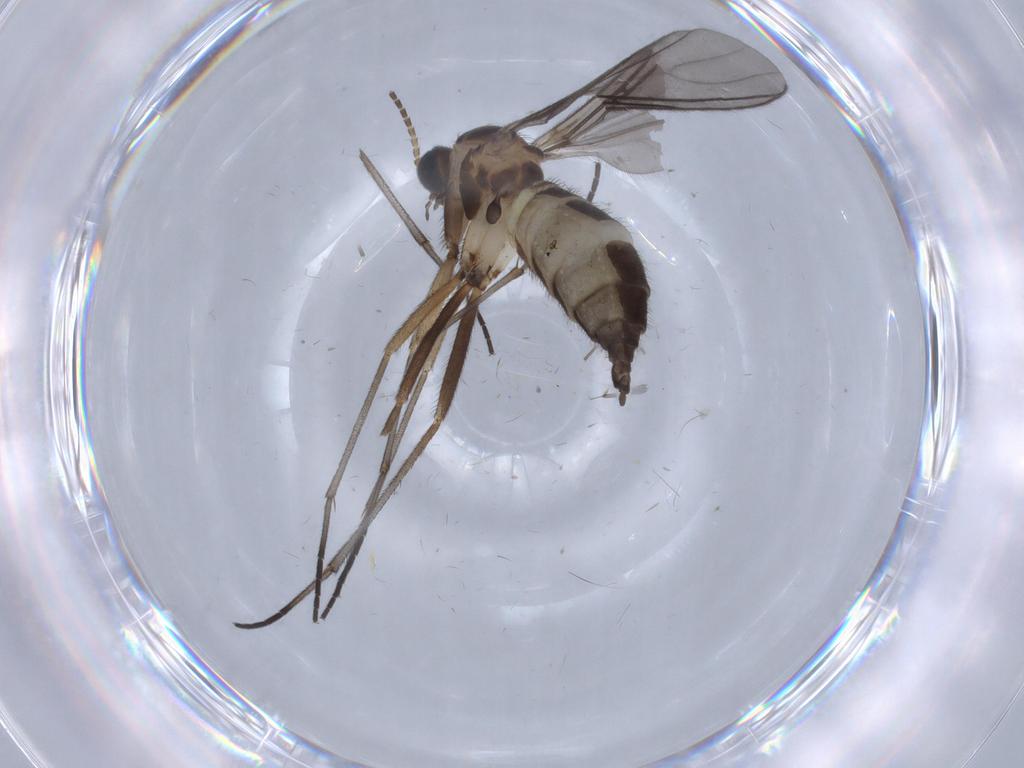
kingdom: Animalia
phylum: Arthropoda
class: Insecta
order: Diptera
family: Sciaridae
